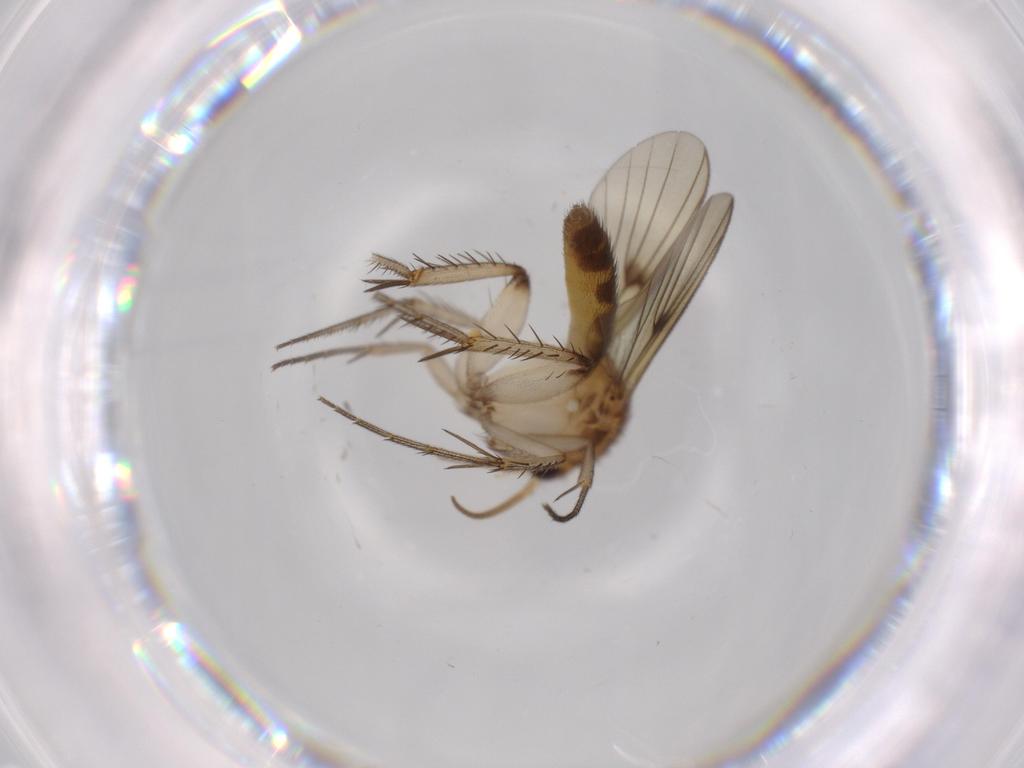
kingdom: Animalia
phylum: Arthropoda
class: Insecta
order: Diptera
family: Mycetophilidae
